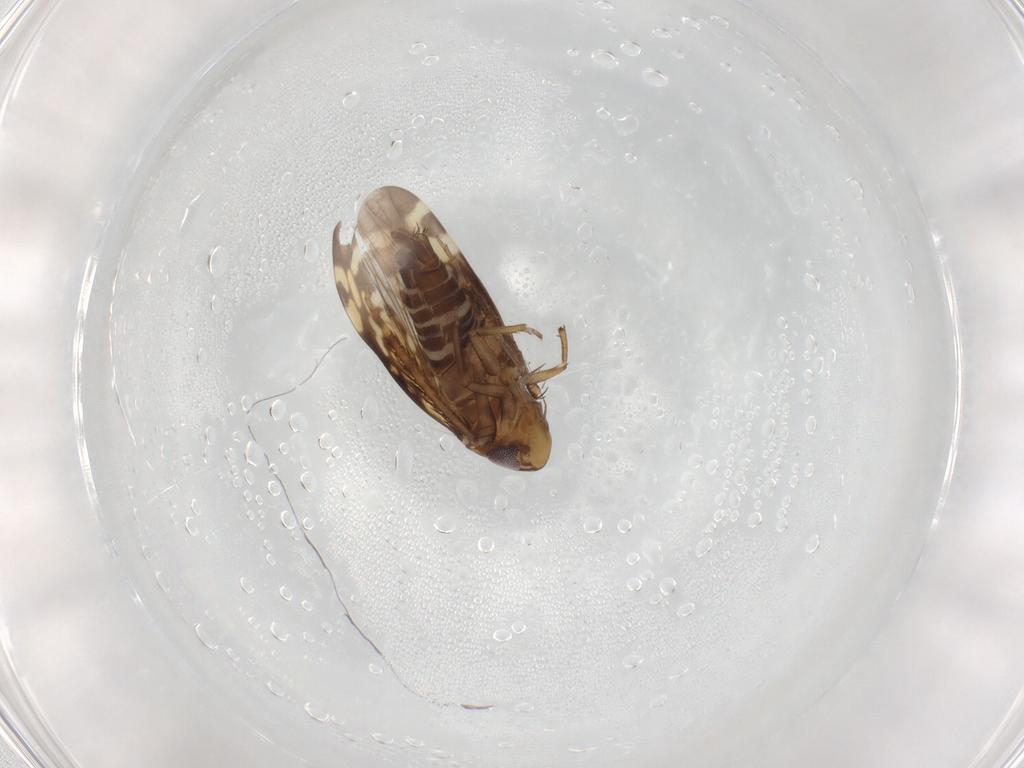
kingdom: Animalia
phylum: Arthropoda
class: Insecta
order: Hemiptera
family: Cicadellidae
